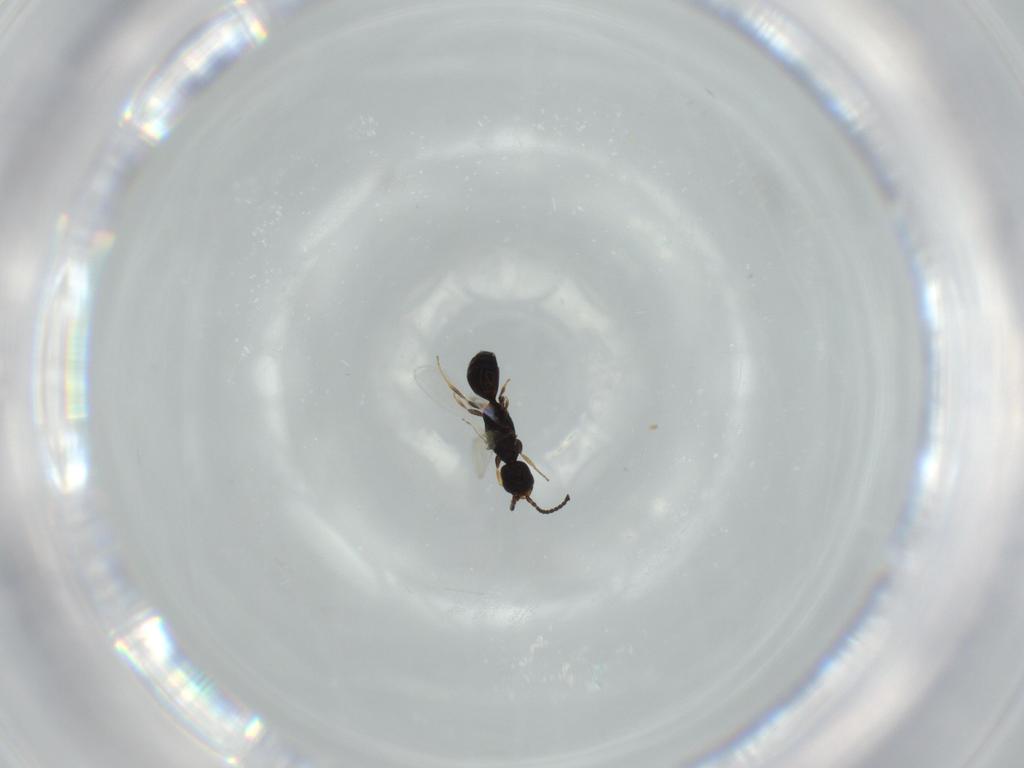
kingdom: Animalia
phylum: Arthropoda
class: Insecta
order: Hymenoptera
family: Bethylidae
